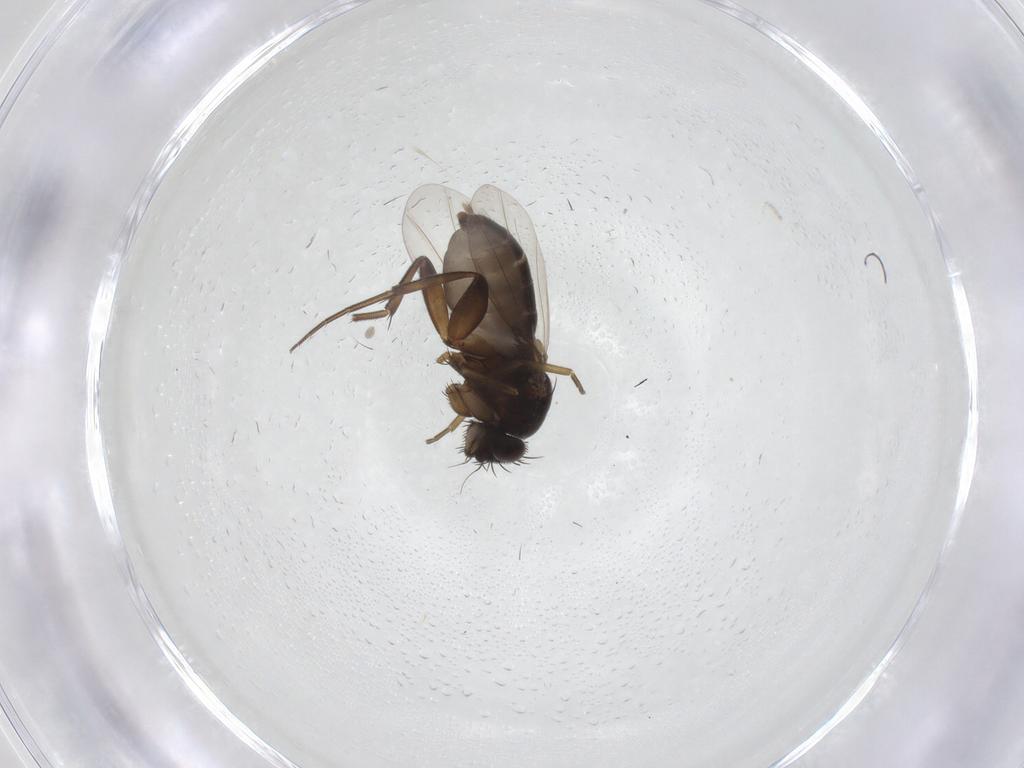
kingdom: Animalia
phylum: Arthropoda
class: Insecta
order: Diptera
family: Phoridae
